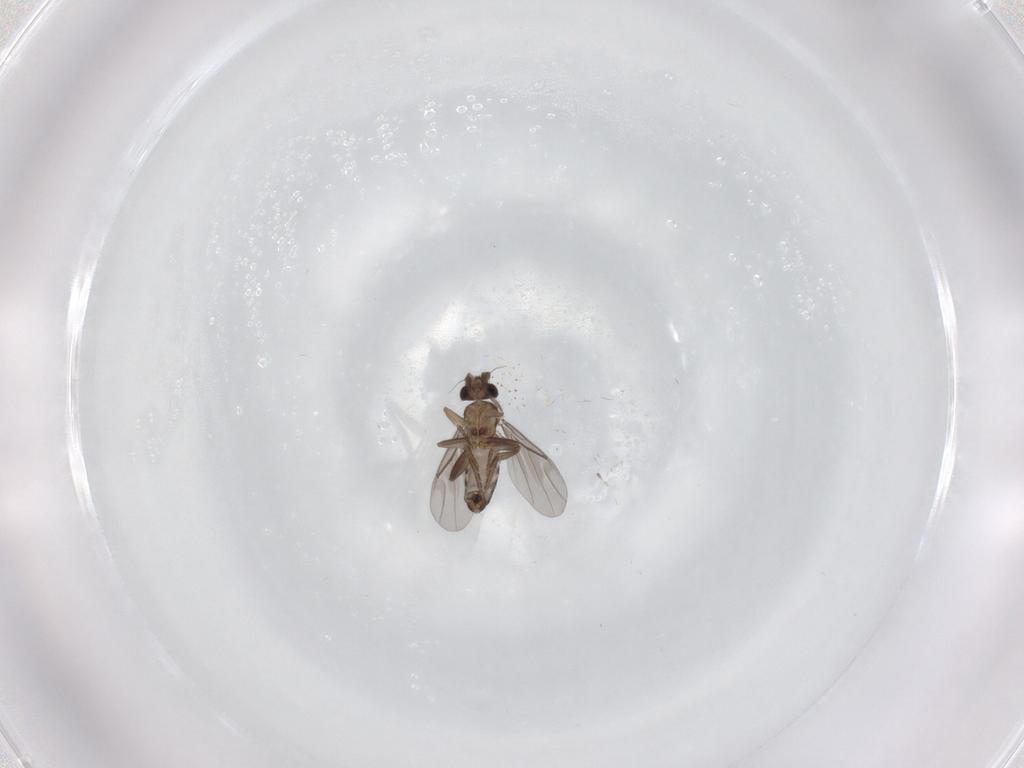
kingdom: Animalia
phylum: Arthropoda
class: Insecta
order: Diptera
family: Chironomidae
